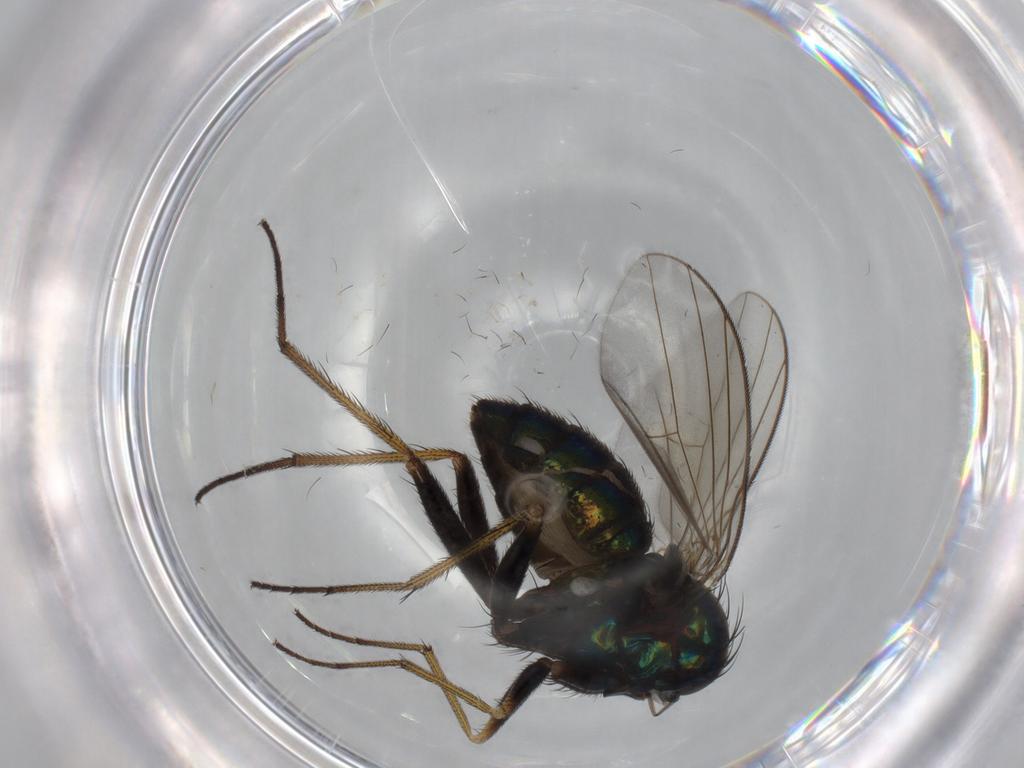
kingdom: Animalia
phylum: Arthropoda
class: Insecta
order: Diptera
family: Dolichopodidae
